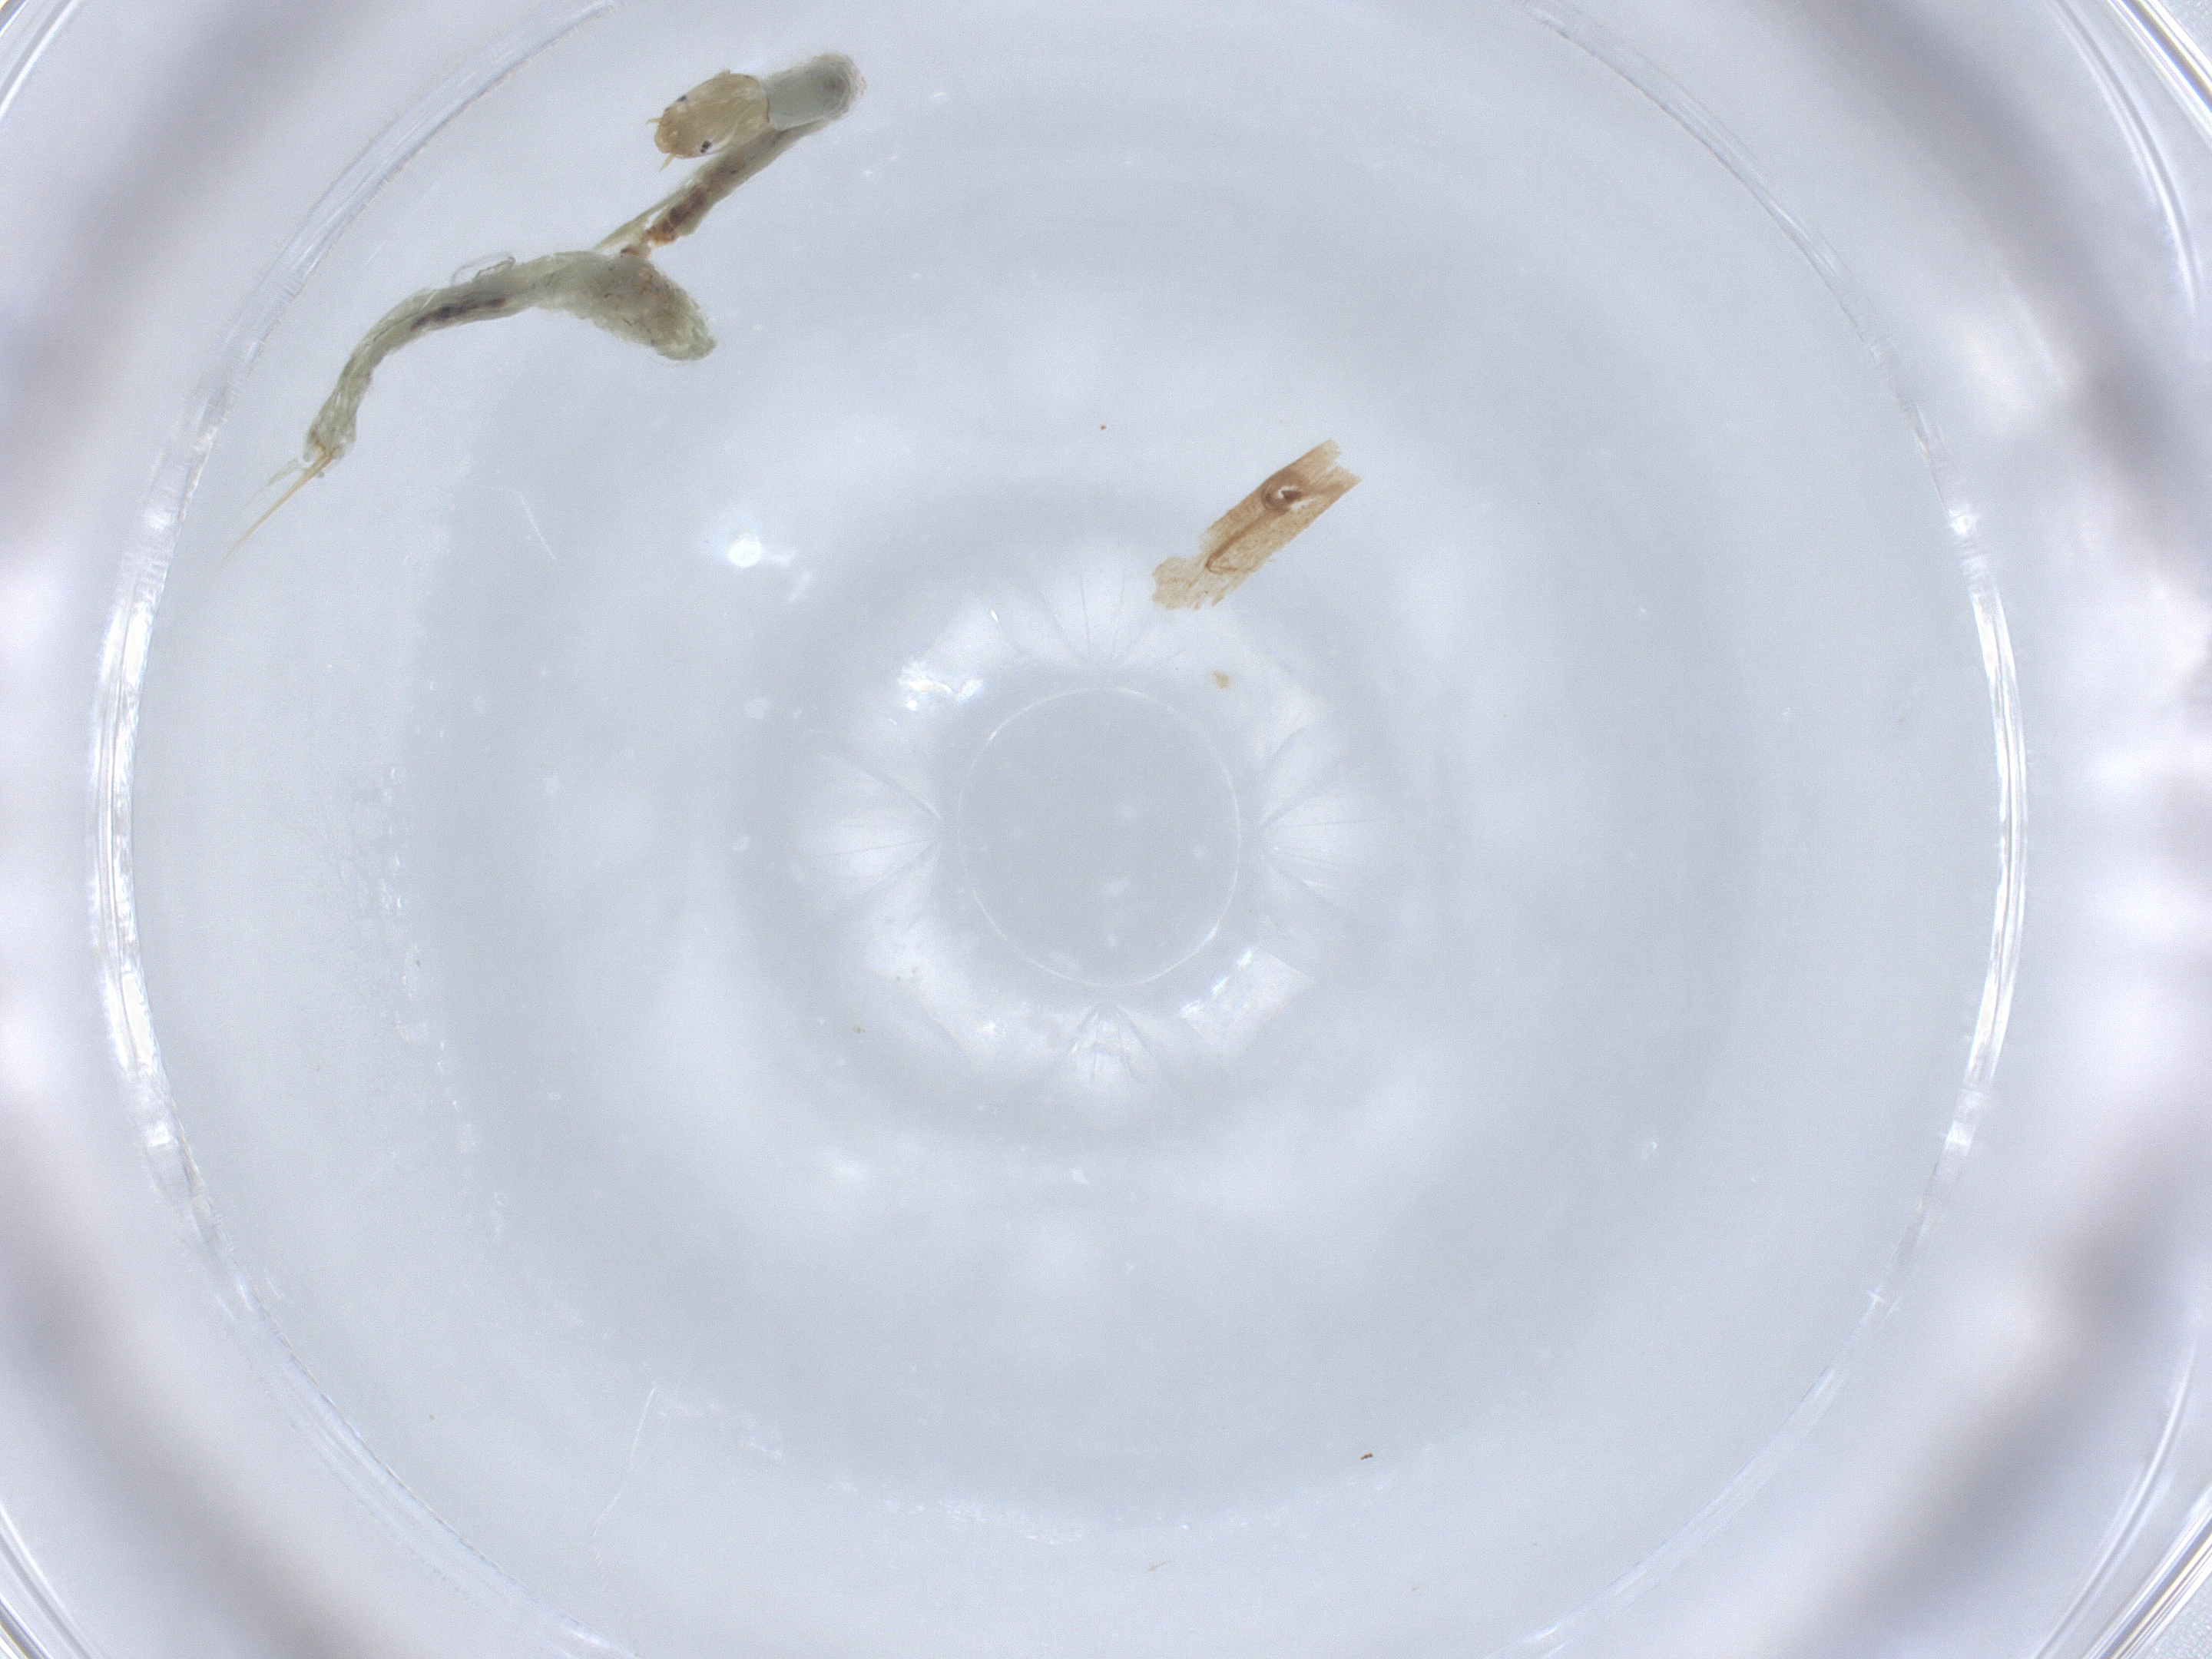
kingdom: Animalia
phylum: Arthropoda
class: Insecta
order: Diptera
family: Chironomidae
